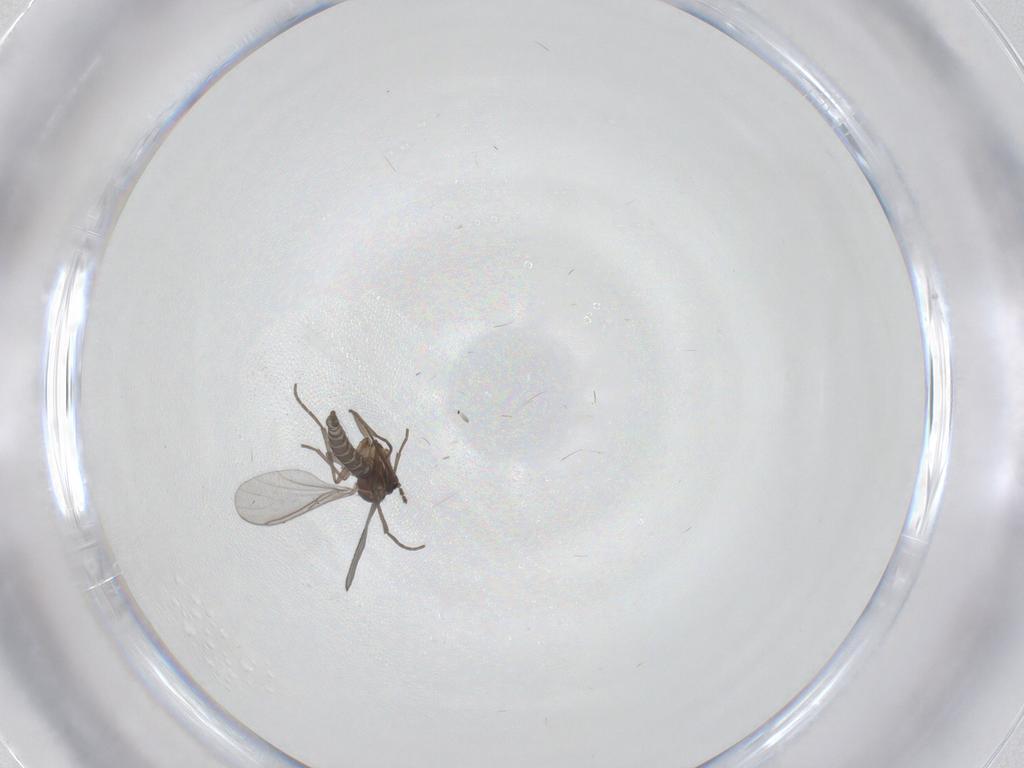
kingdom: Animalia
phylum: Arthropoda
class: Insecta
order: Diptera
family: Sciaridae
